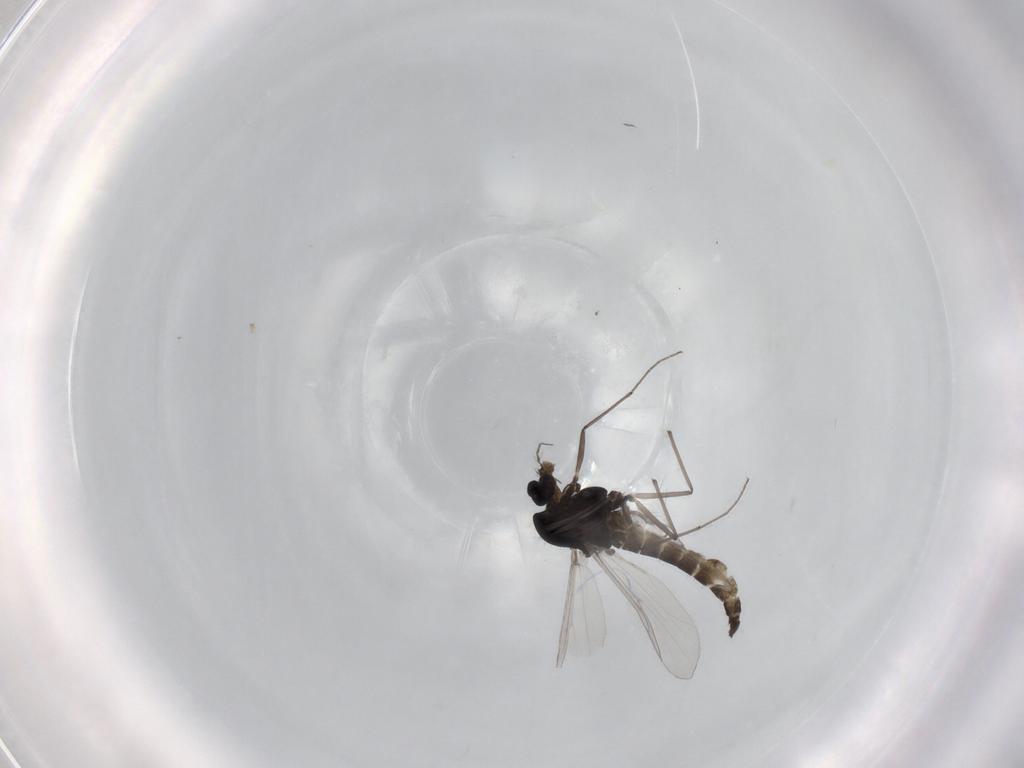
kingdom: Animalia
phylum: Arthropoda
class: Insecta
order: Diptera
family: Chironomidae
